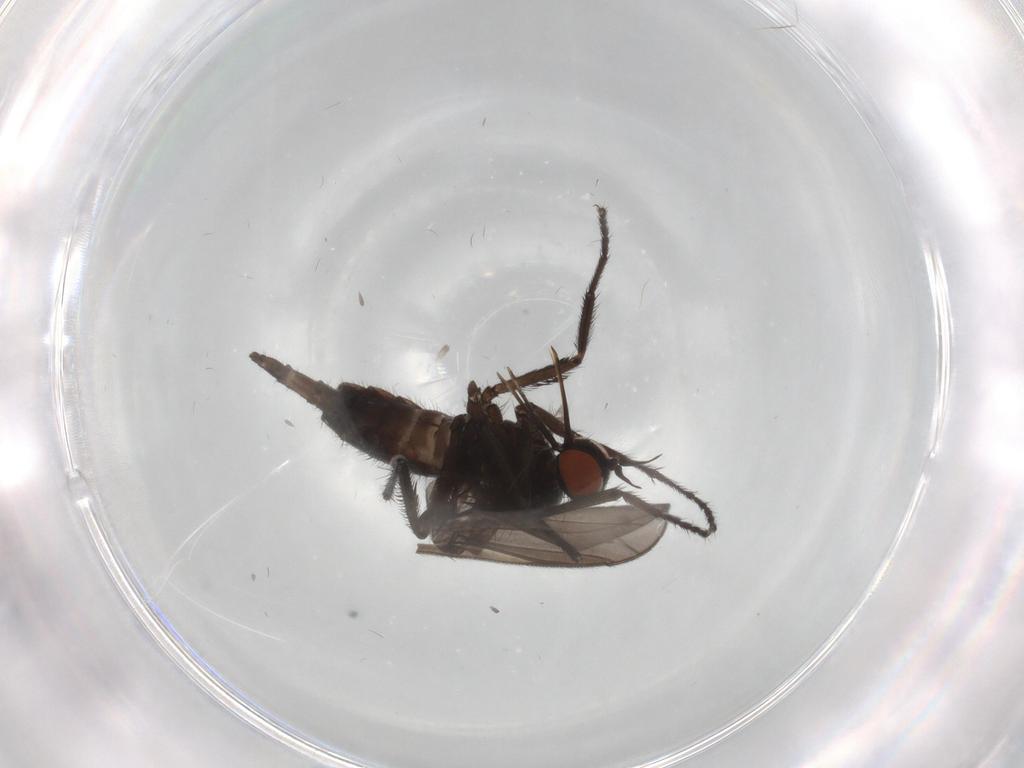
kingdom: Animalia
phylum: Arthropoda
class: Insecta
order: Diptera
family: Empididae
